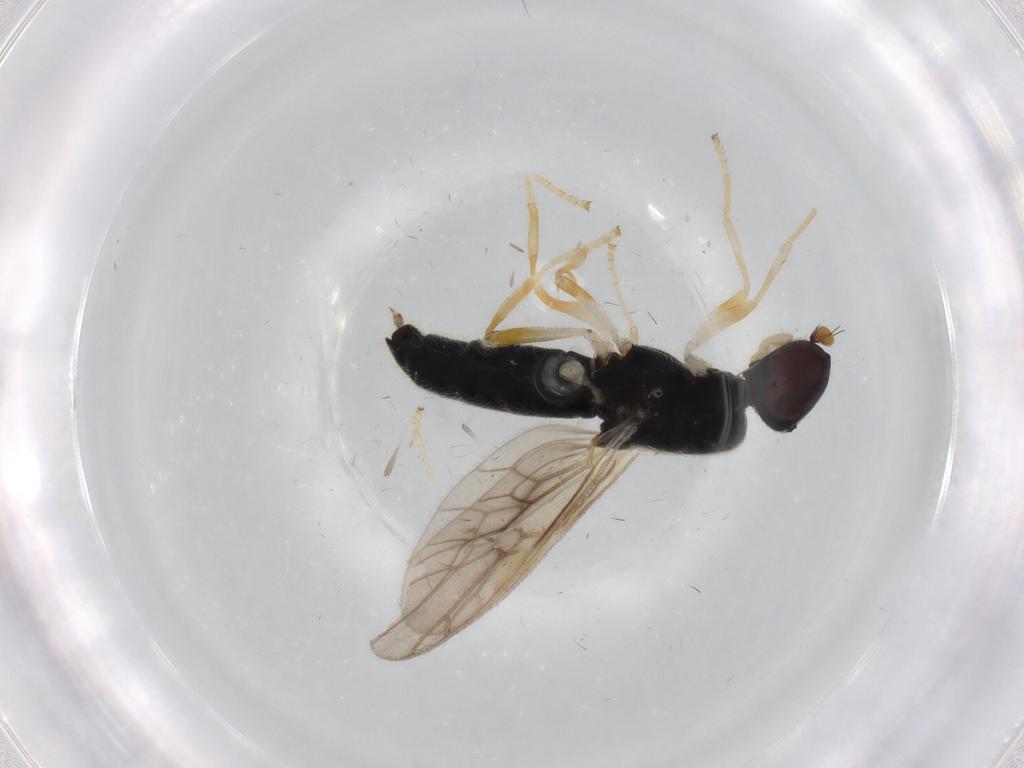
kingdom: Animalia
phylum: Arthropoda
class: Insecta
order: Diptera
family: Stratiomyidae
